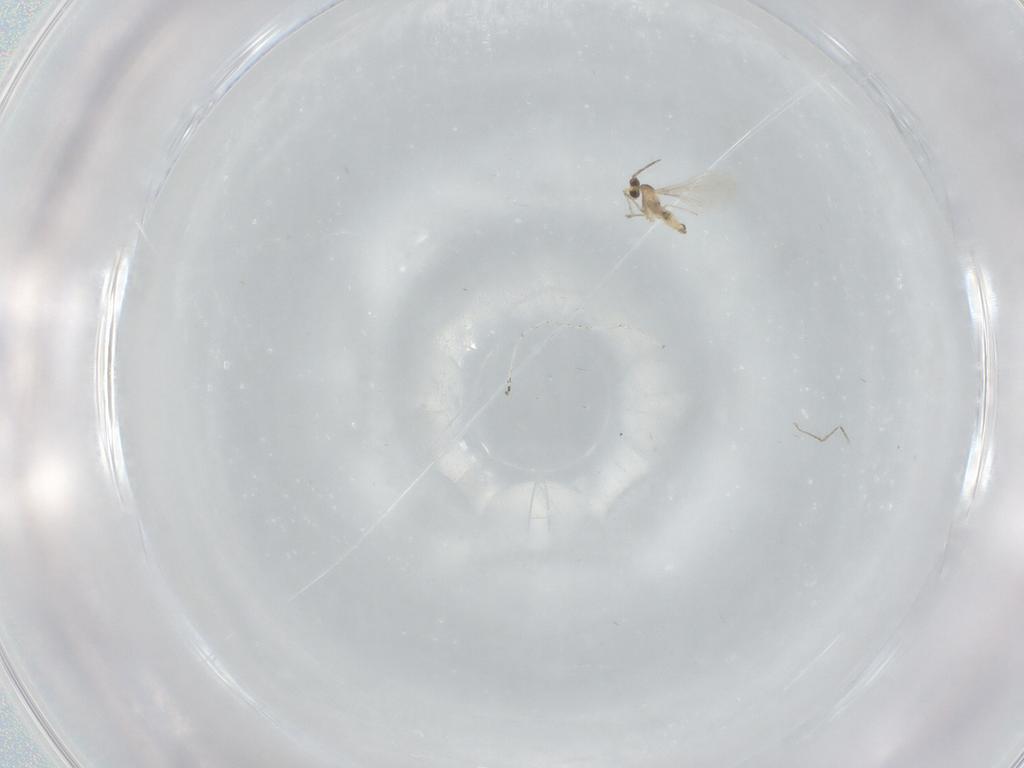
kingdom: Animalia
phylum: Arthropoda
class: Insecta
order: Diptera
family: Cecidomyiidae
